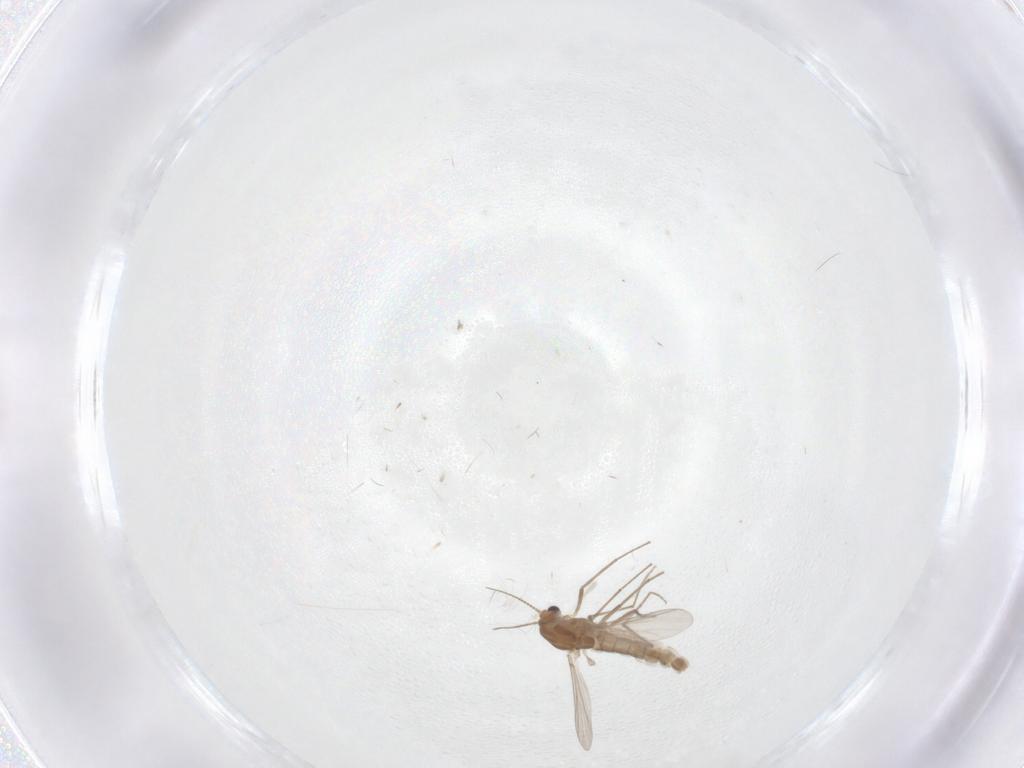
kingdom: Animalia
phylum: Arthropoda
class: Insecta
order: Diptera
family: Chironomidae
